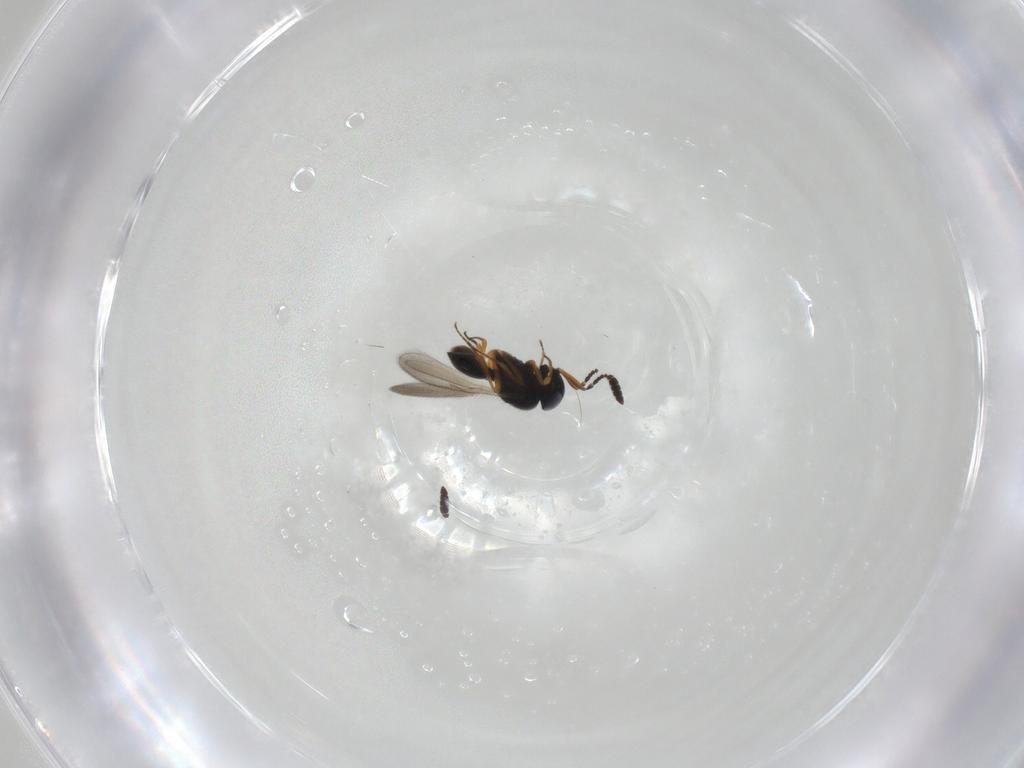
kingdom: Animalia
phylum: Arthropoda
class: Insecta
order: Hymenoptera
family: Scelionidae
